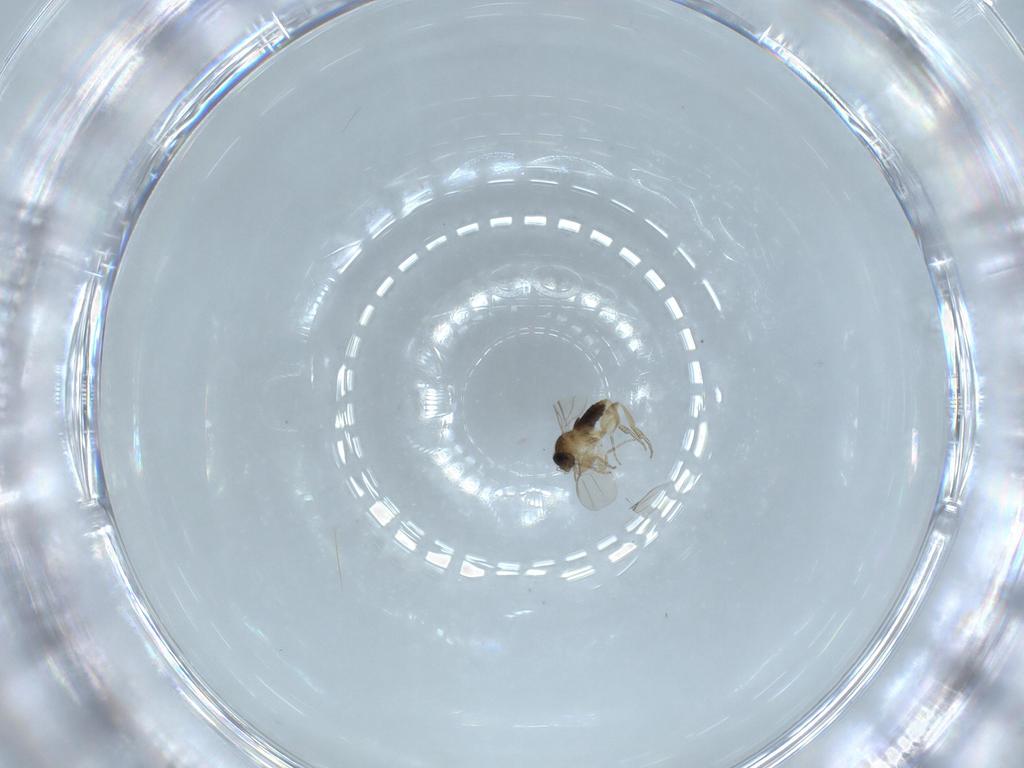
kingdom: Animalia
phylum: Arthropoda
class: Insecta
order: Diptera
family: Phoridae
